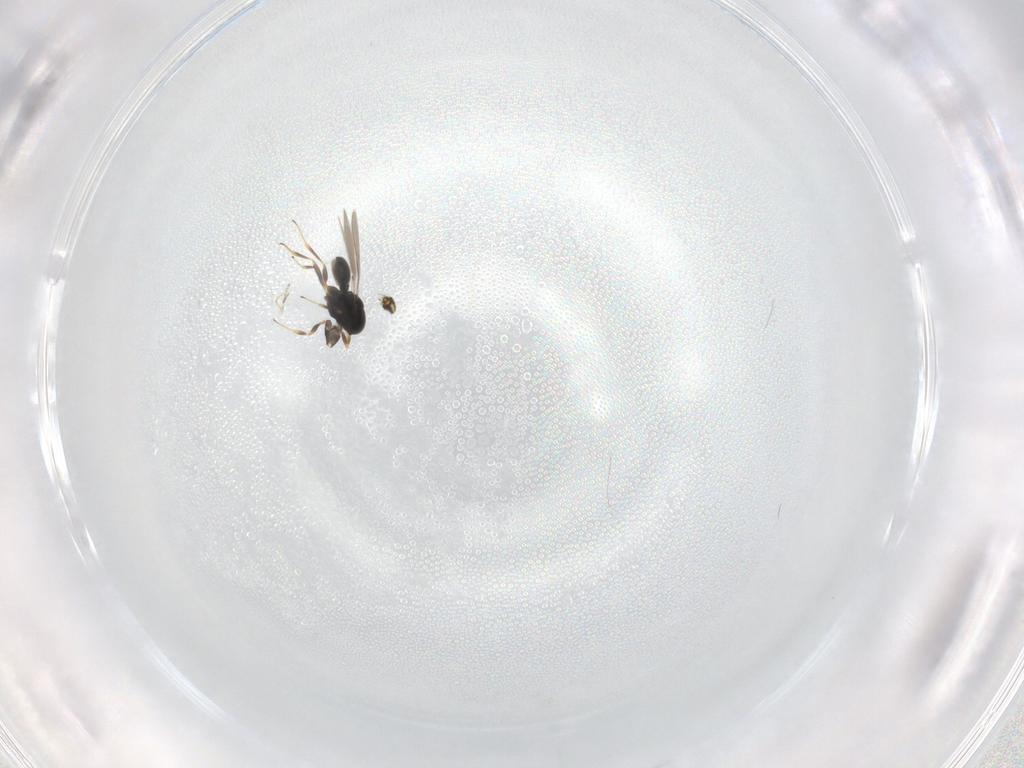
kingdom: Animalia
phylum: Arthropoda
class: Insecta
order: Hymenoptera
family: Scelionidae
